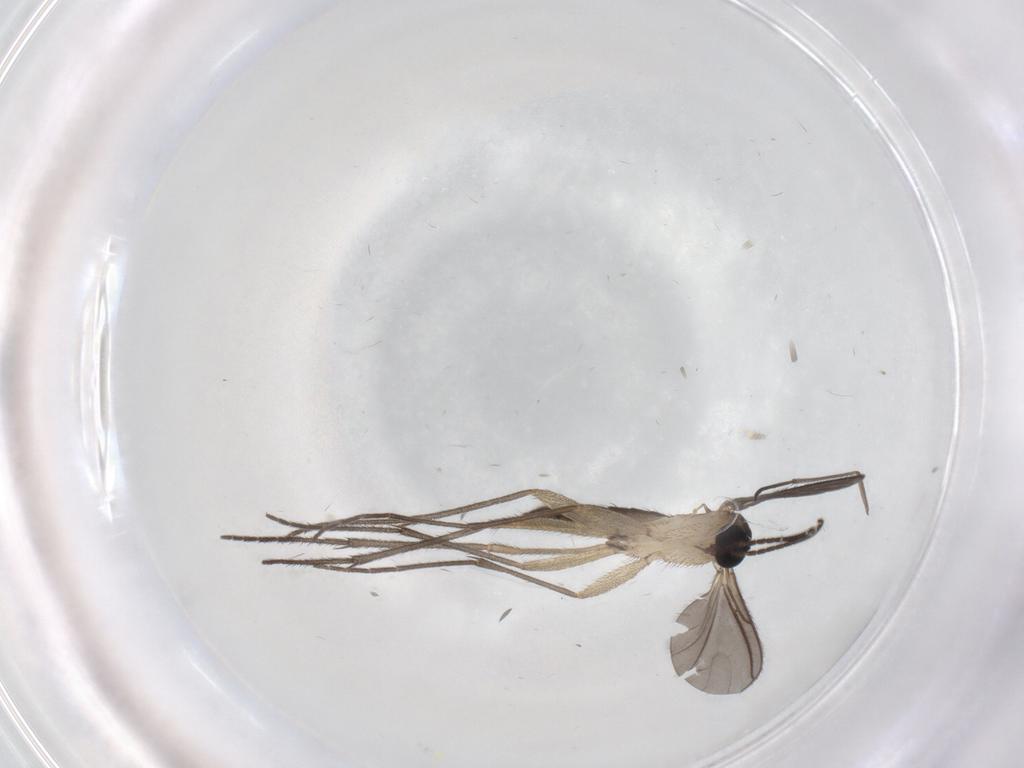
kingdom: Animalia
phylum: Arthropoda
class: Insecta
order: Diptera
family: Sciaridae
